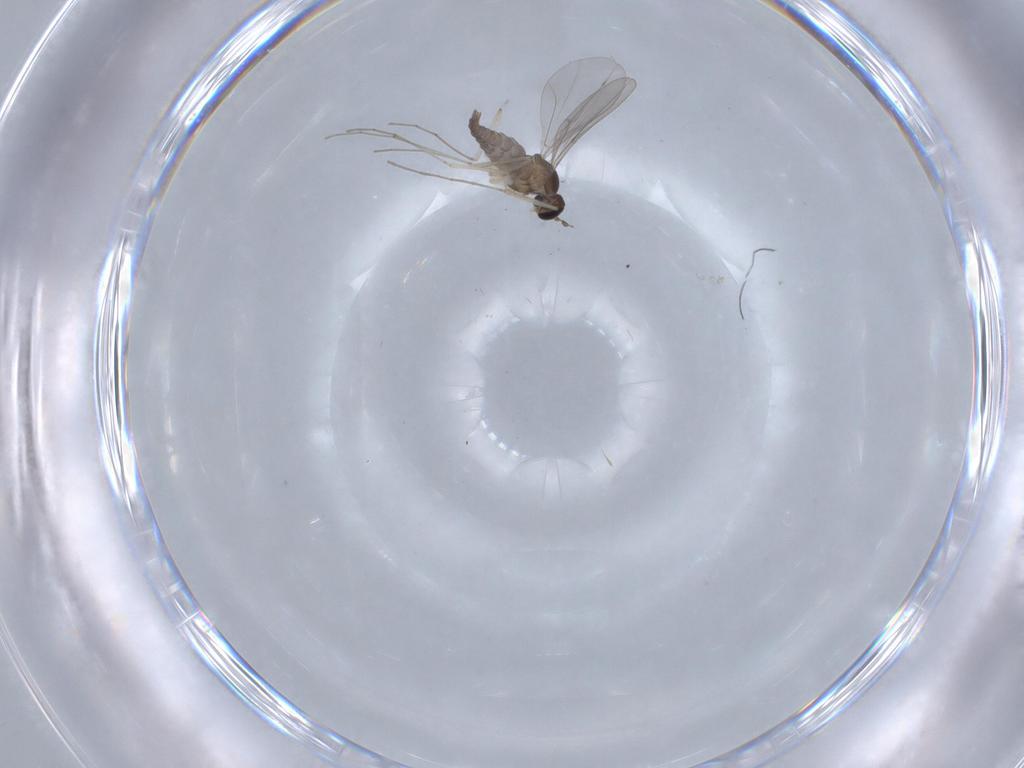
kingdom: Animalia
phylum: Arthropoda
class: Insecta
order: Diptera
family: Cecidomyiidae
